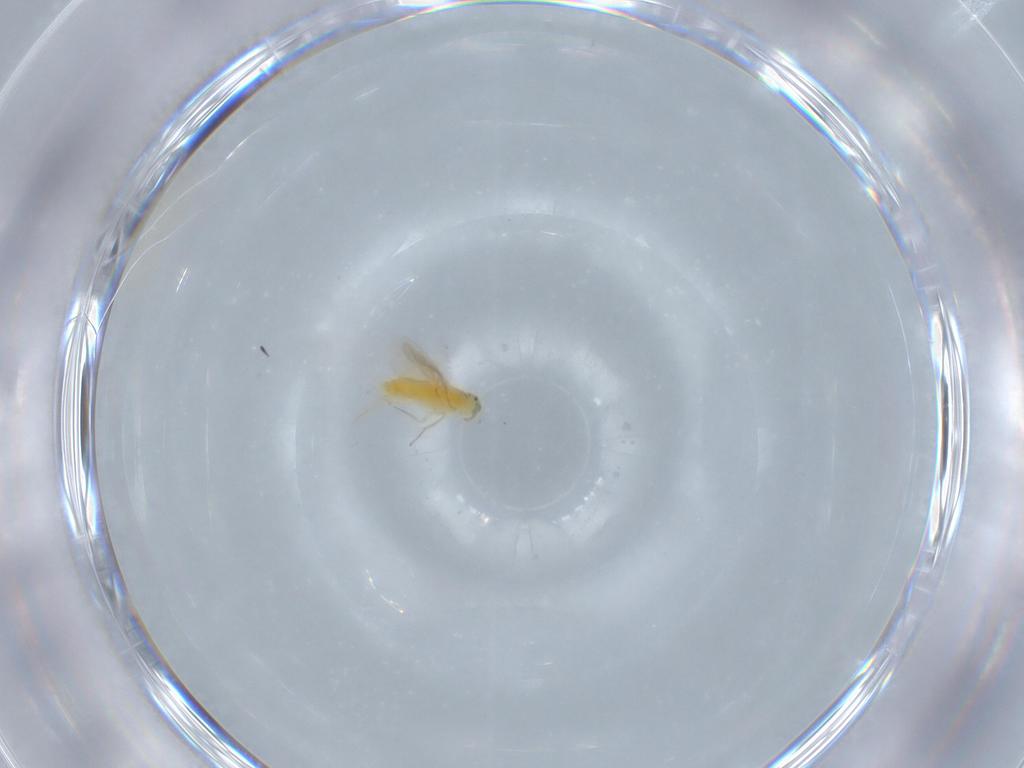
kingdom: Animalia
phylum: Arthropoda
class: Insecta
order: Hymenoptera
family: Aphelinidae
